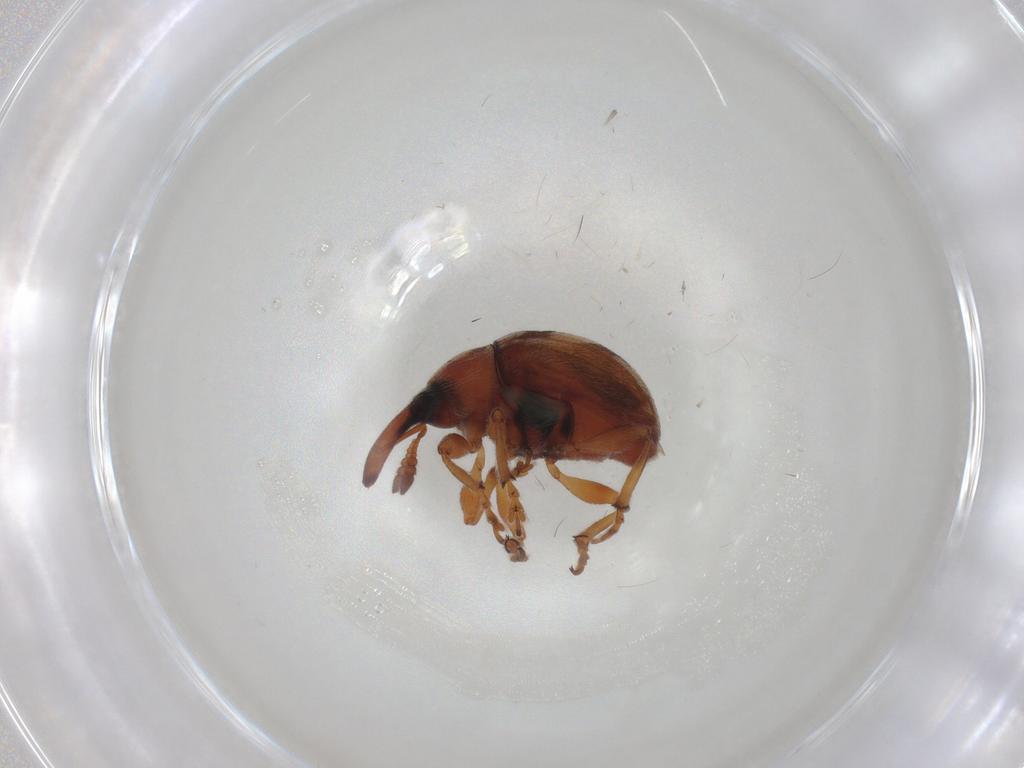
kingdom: Animalia
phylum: Arthropoda
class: Insecta
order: Coleoptera
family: Brentidae
